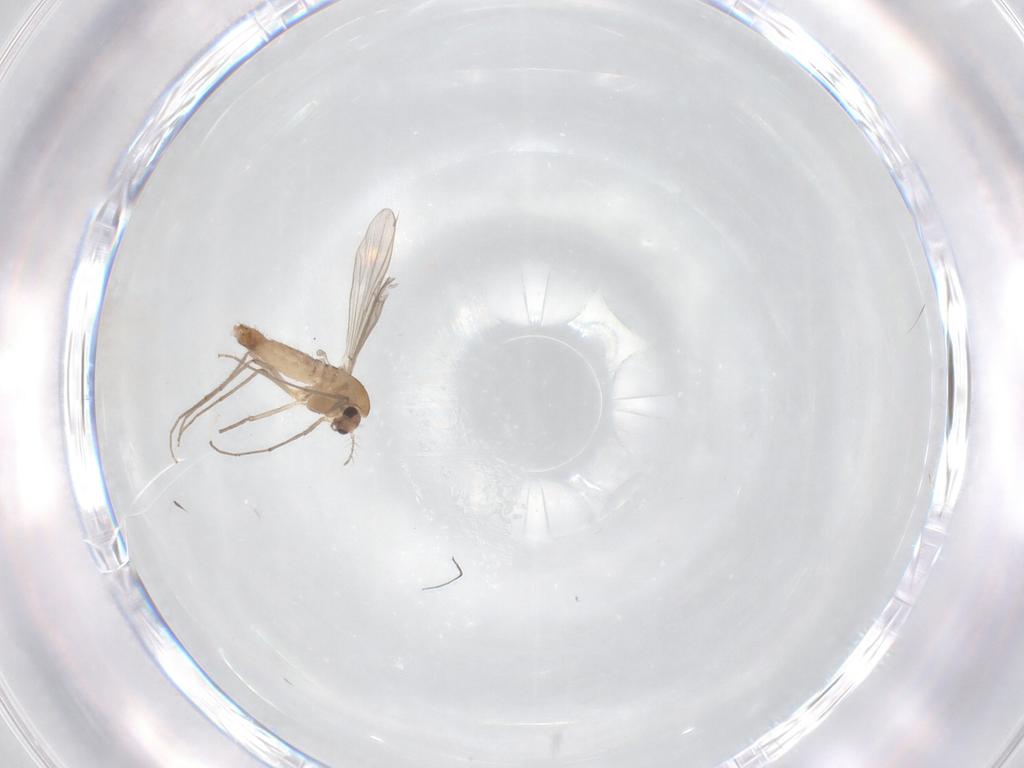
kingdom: Animalia
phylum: Arthropoda
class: Insecta
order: Diptera
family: Chironomidae
